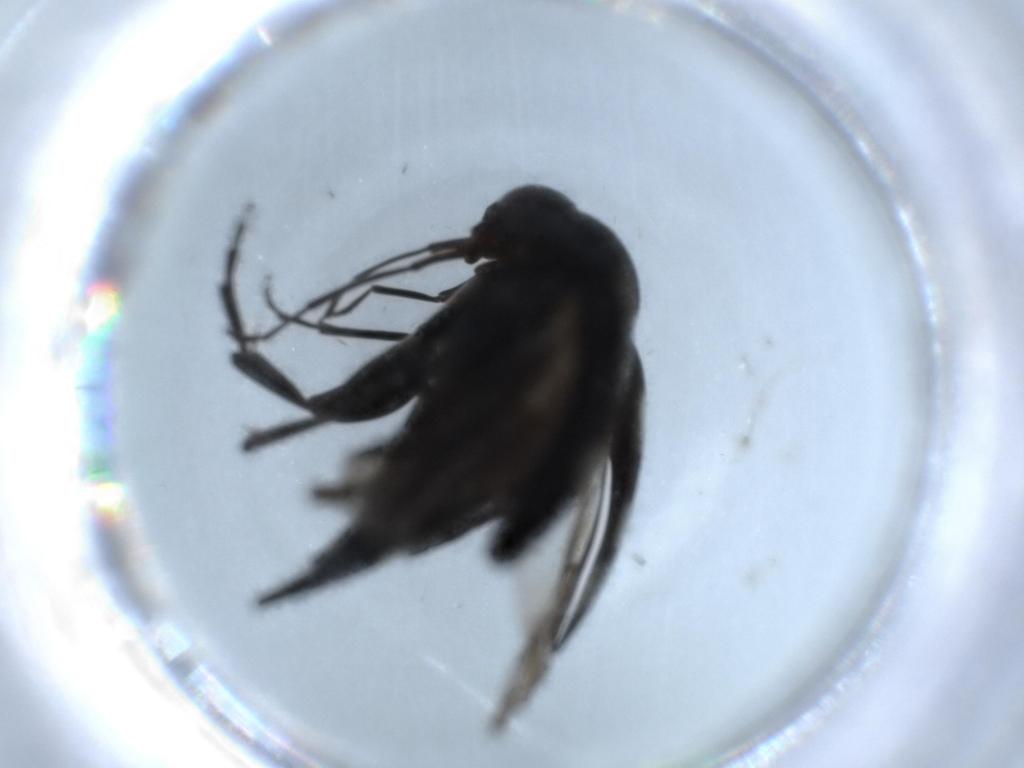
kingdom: Animalia
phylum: Arthropoda
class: Insecta
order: Coleoptera
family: Mordellidae
